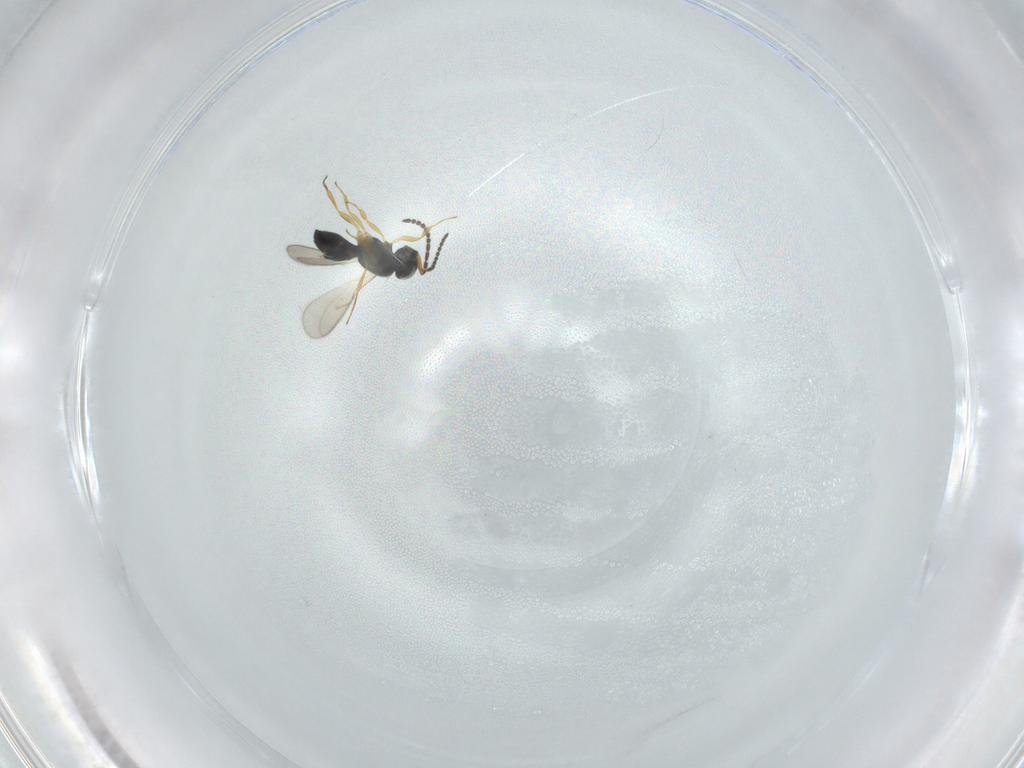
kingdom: Animalia
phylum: Arthropoda
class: Insecta
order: Hymenoptera
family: Scelionidae
